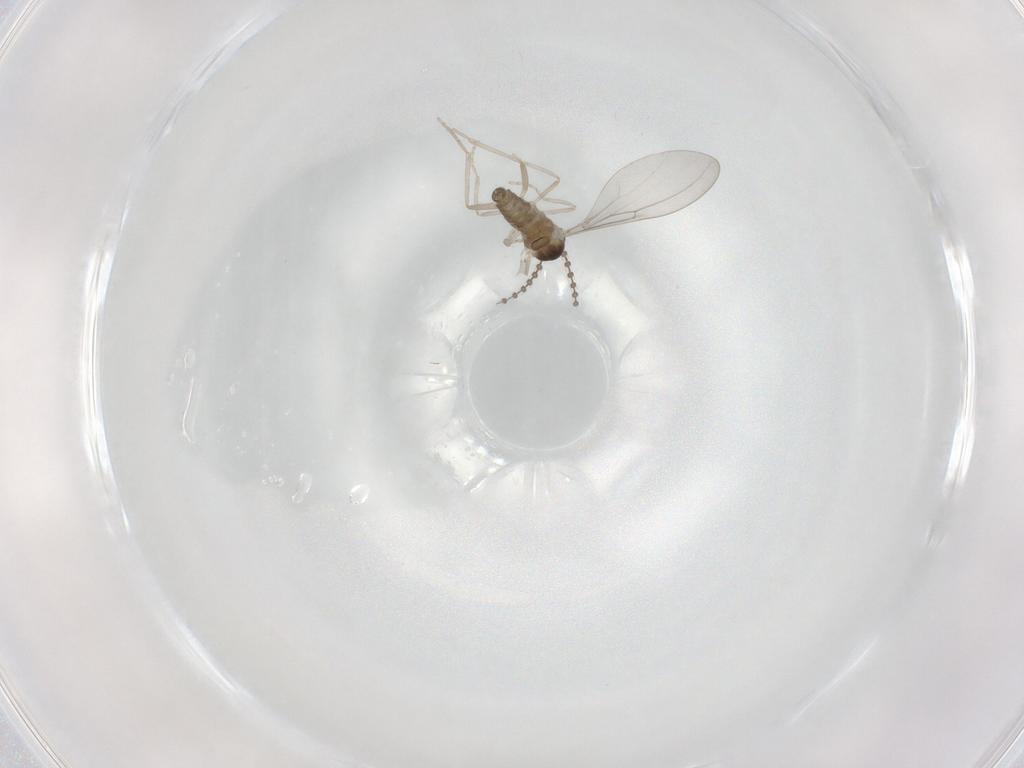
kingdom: Animalia
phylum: Arthropoda
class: Insecta
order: Diptera
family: Cecidomyiidae
